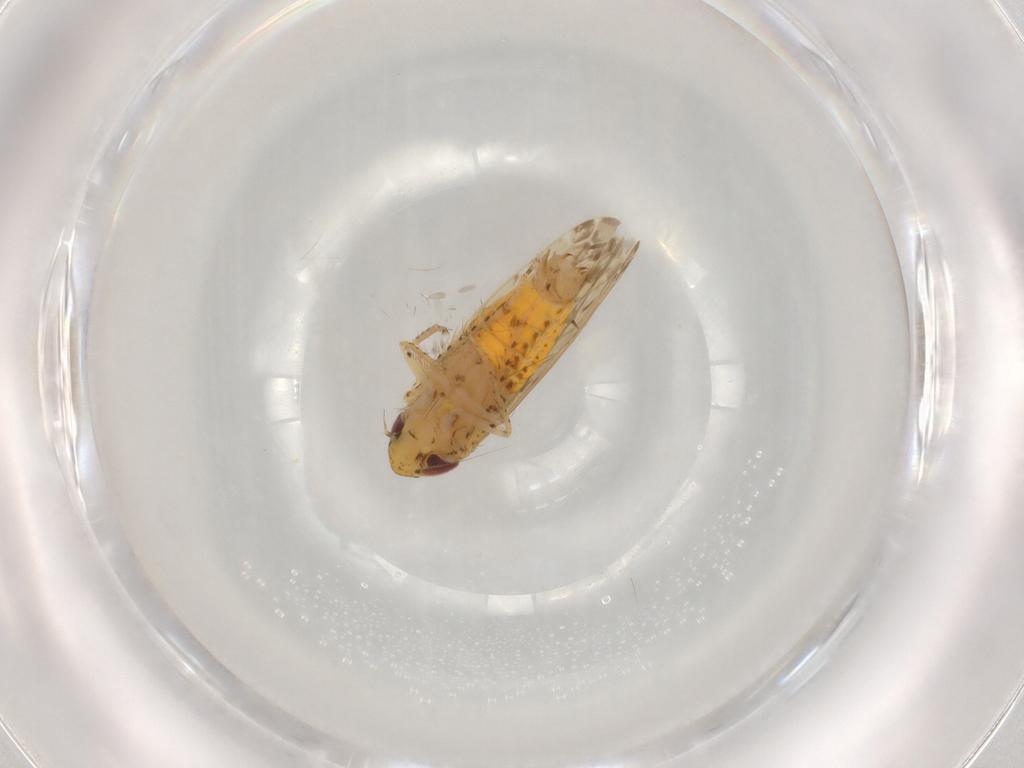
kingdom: Animalia
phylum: Arthropoda
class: Insecta
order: Hemiptera
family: Cicadellidae
